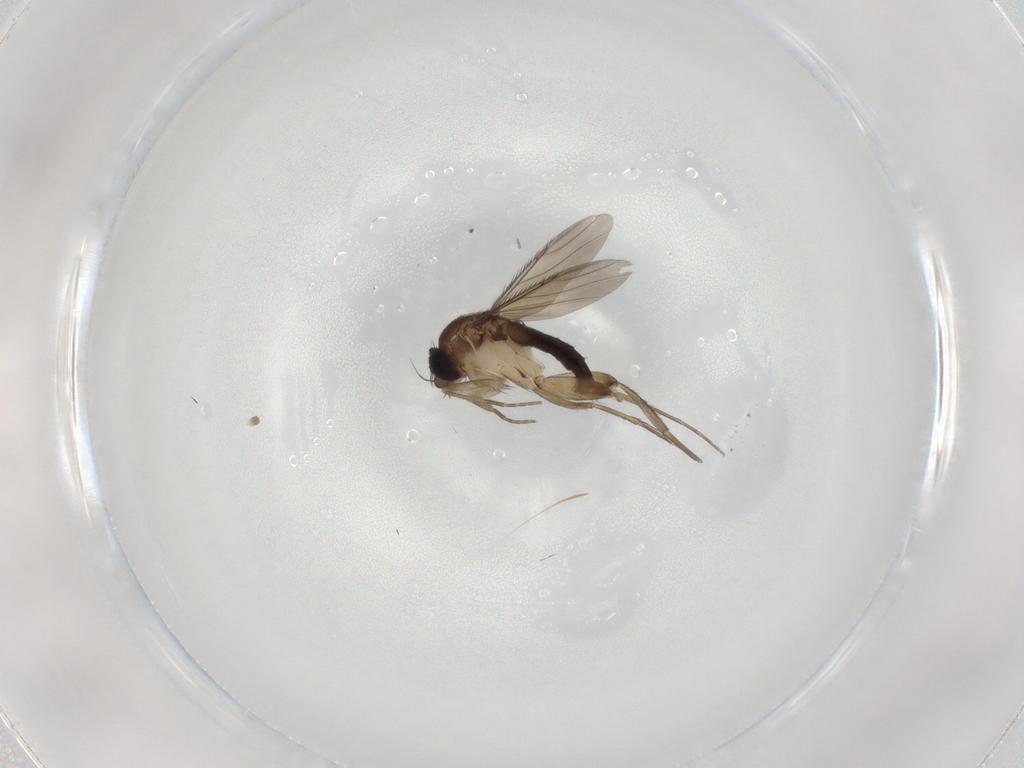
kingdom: Animalia
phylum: Arthropoda
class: Insecta
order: Diptera
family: Phoridae
